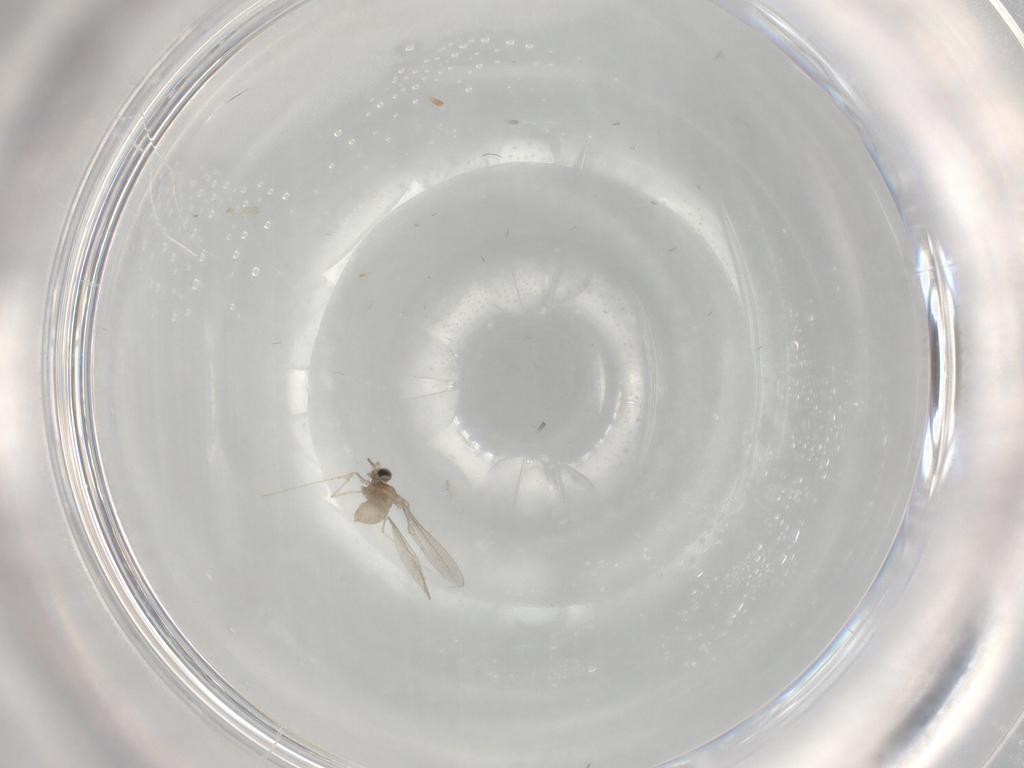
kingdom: Animalia
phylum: Arthropoda
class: Insecta
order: Diptera
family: Cecidomyiidae
